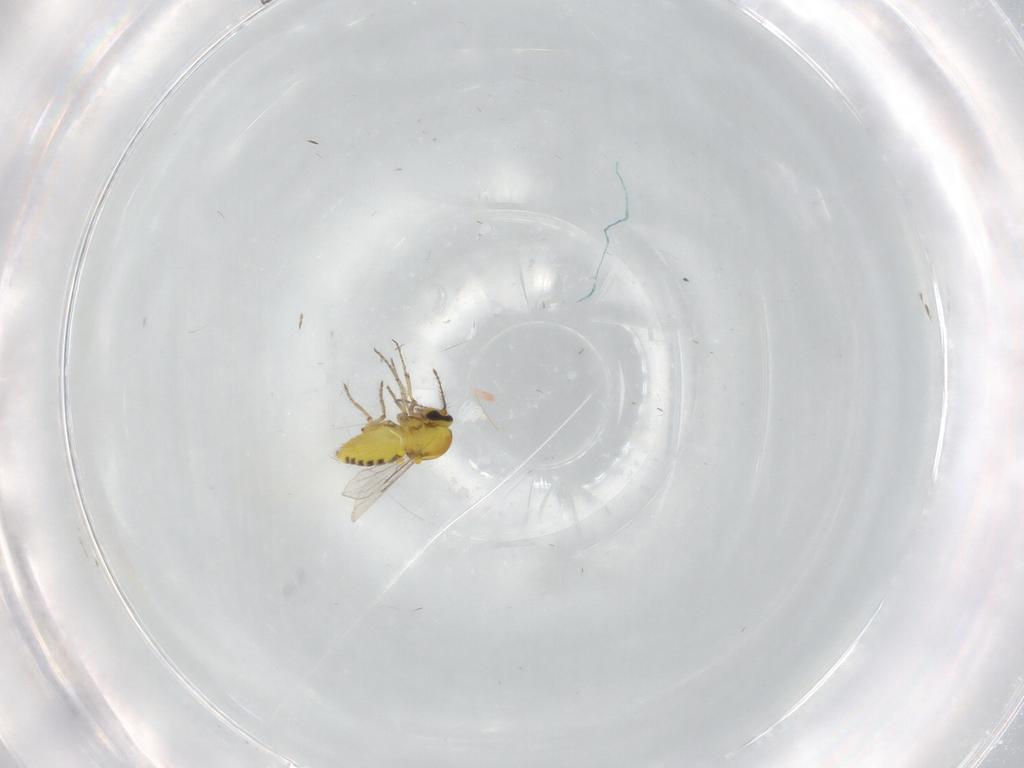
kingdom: Animalia
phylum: Arthropoda
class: Insecta
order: Diptera
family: Ceratopogonidae
